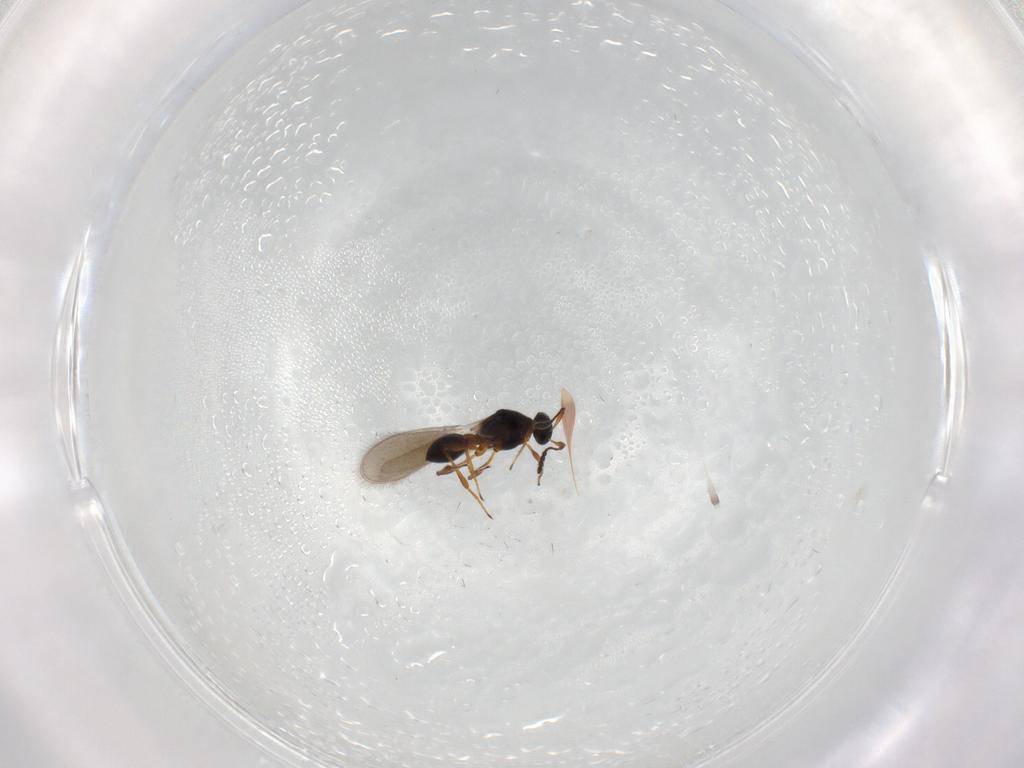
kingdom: Animalia
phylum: Arthropoda
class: Insecta
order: Hymenoptera
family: Platygastridae
